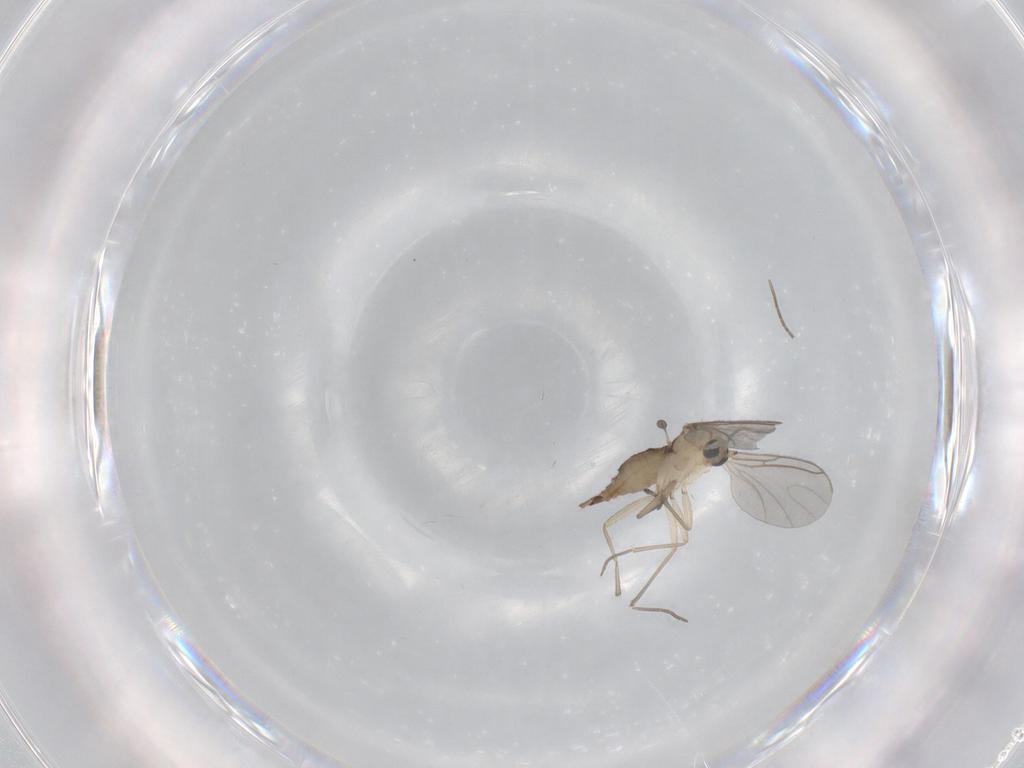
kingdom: Animalia
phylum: Arthropoda
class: Insecta
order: Diptera
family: Sciaridae
